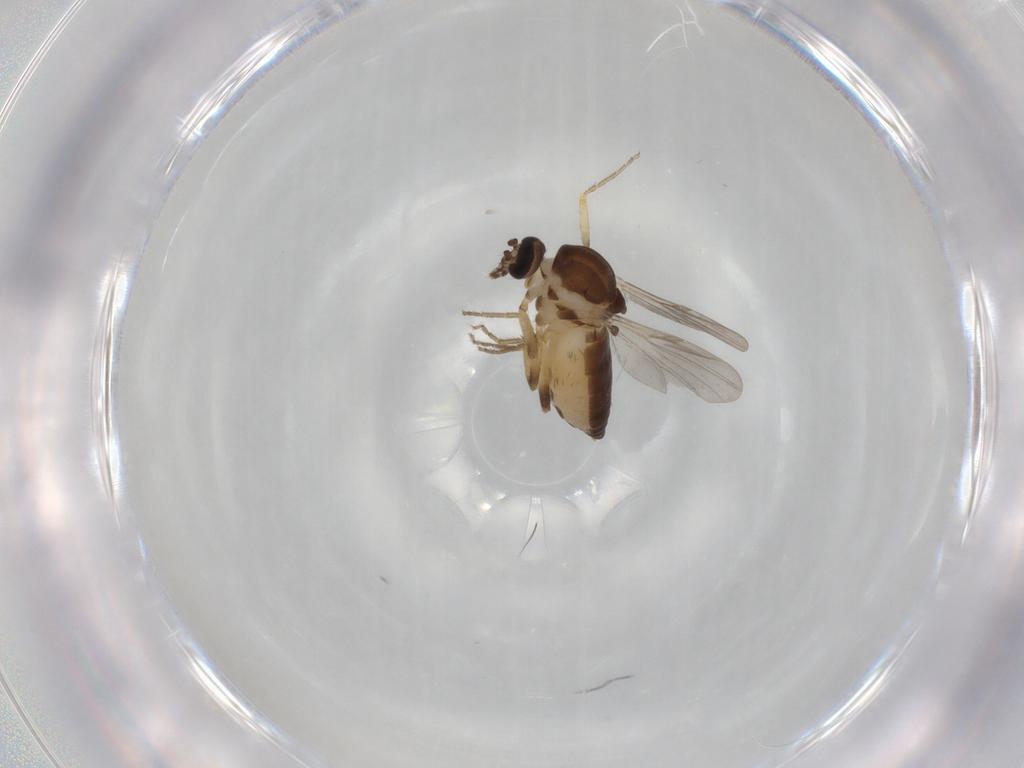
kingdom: Animalia
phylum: Arthropoda
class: Insecta
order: Diptera
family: Ceratopogonidae
